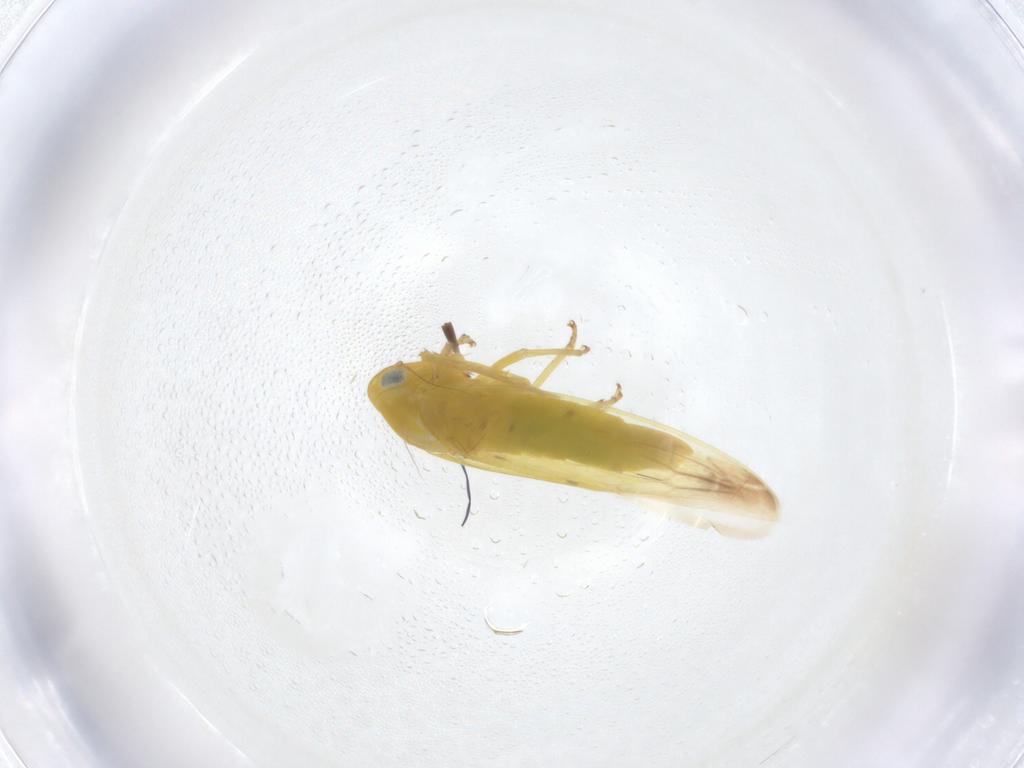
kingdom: Animalia
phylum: Arthropoda
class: Insecta
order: Hemiptera
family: Cicadellidae
